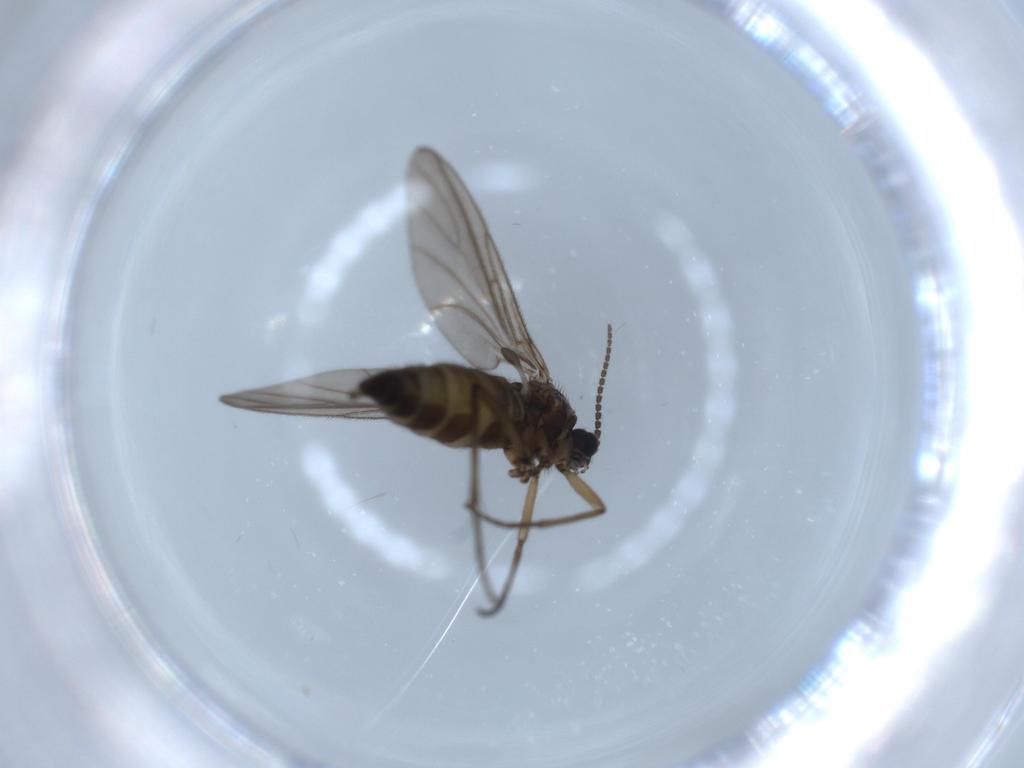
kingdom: Animalia
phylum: Arthropoda
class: Insecta
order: Diptera
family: Sciaridae
